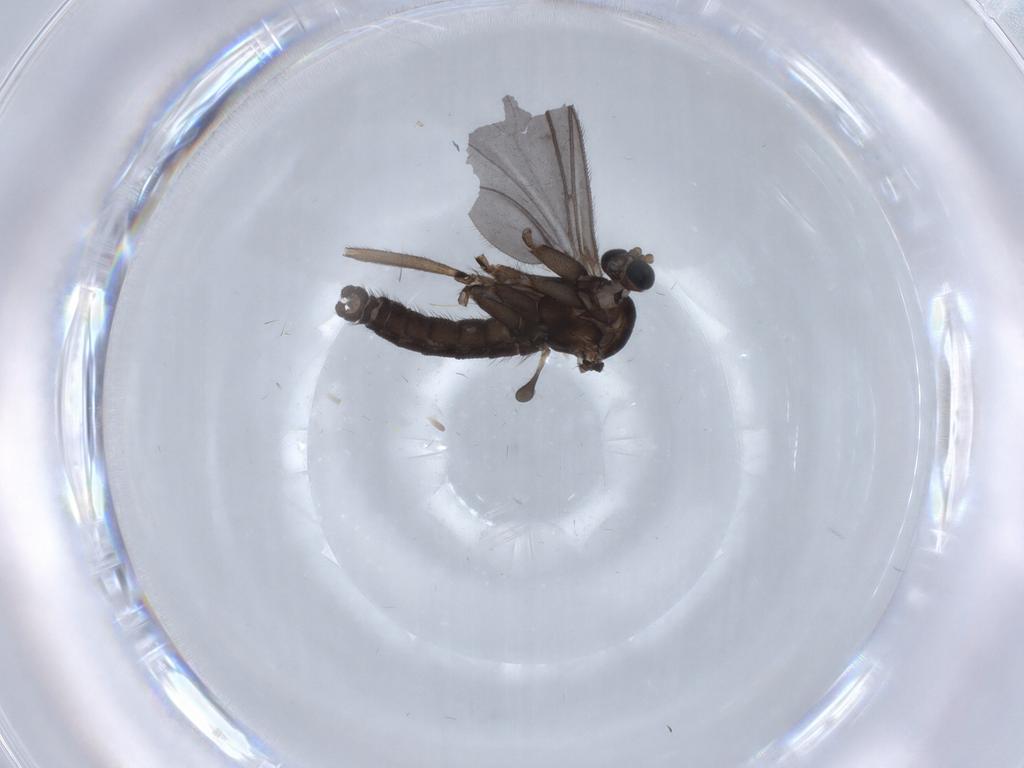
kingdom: Animalia
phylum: Arthropoda
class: Insecta
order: Diptera
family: Sciaridae
